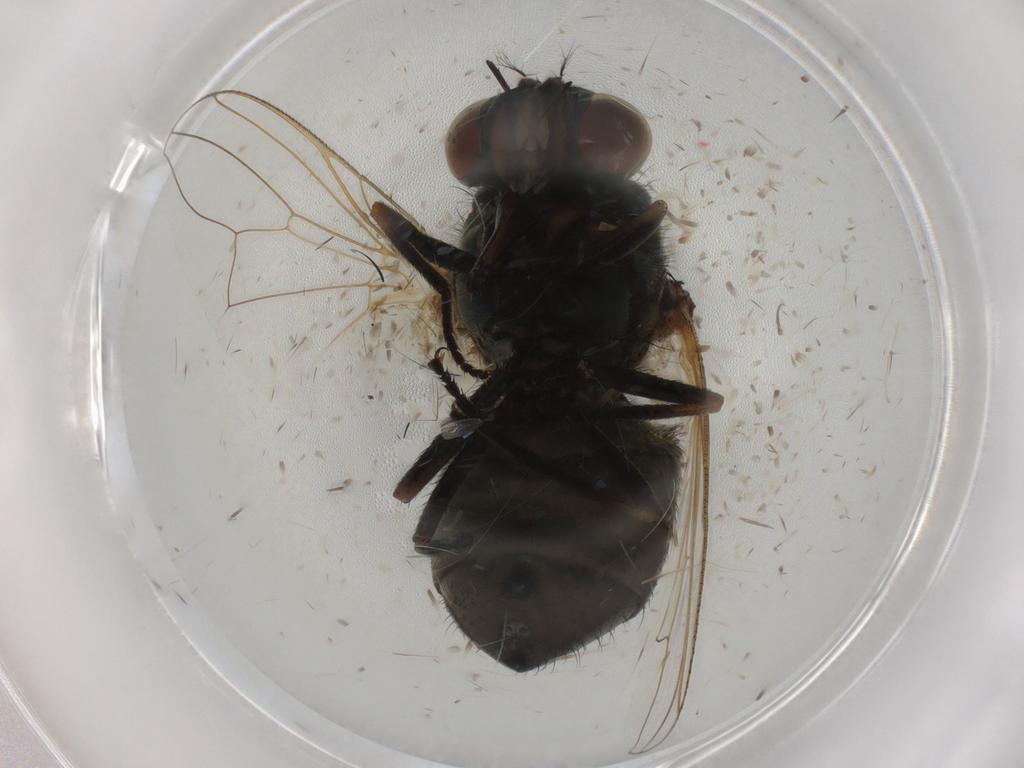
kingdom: Animalia
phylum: Arthropoda
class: Insecta
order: Diptera
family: Muscidae
